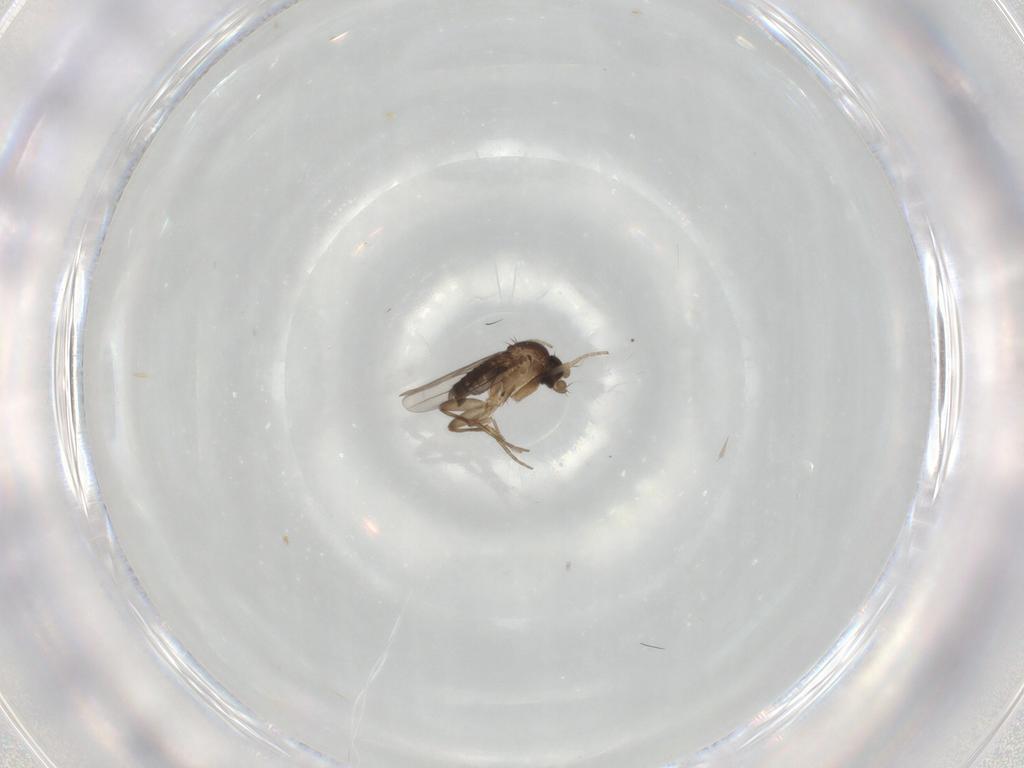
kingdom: Animalia
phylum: Arthropoda
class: Insecta
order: Diptera
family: Phoridae
